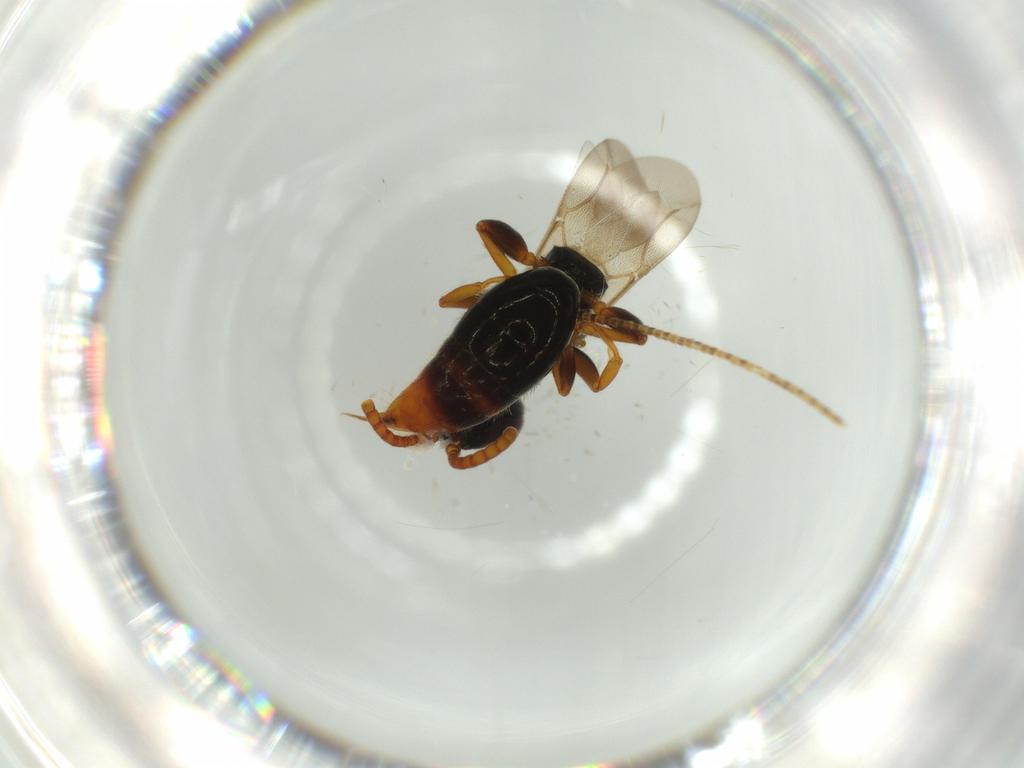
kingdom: Animalia
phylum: Arthropoda
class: Insecta
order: Hymenoptera
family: Bethylidae
